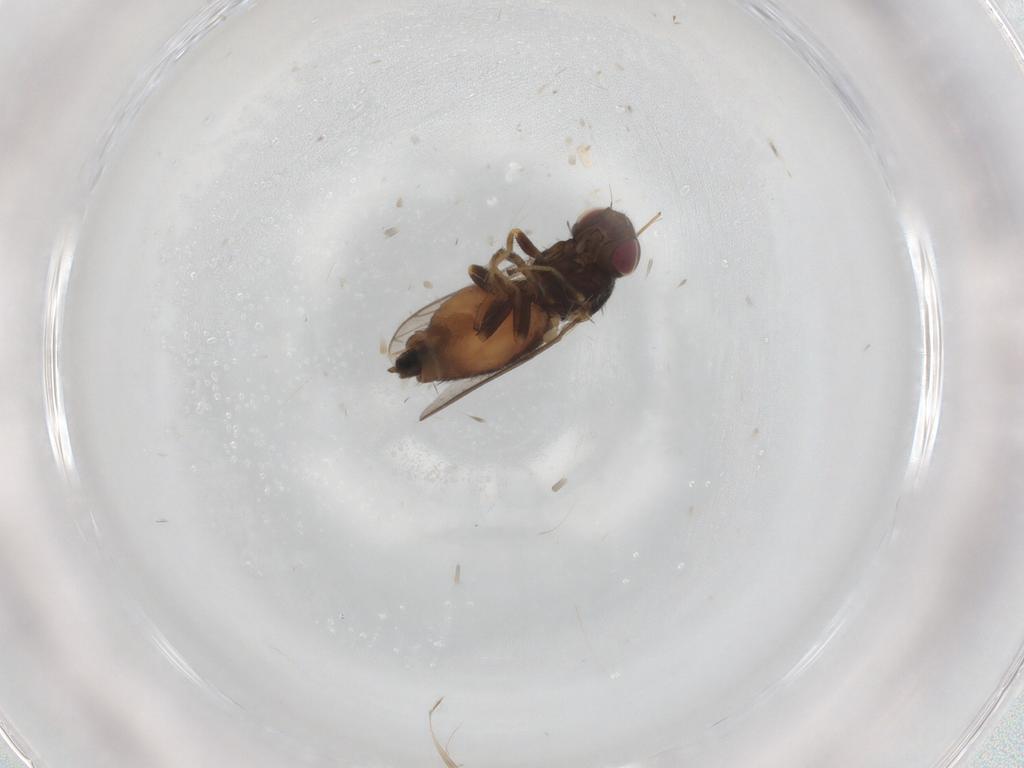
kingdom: Animalia
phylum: Arthropoda
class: Insecta
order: Diptera
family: Chloropidae
